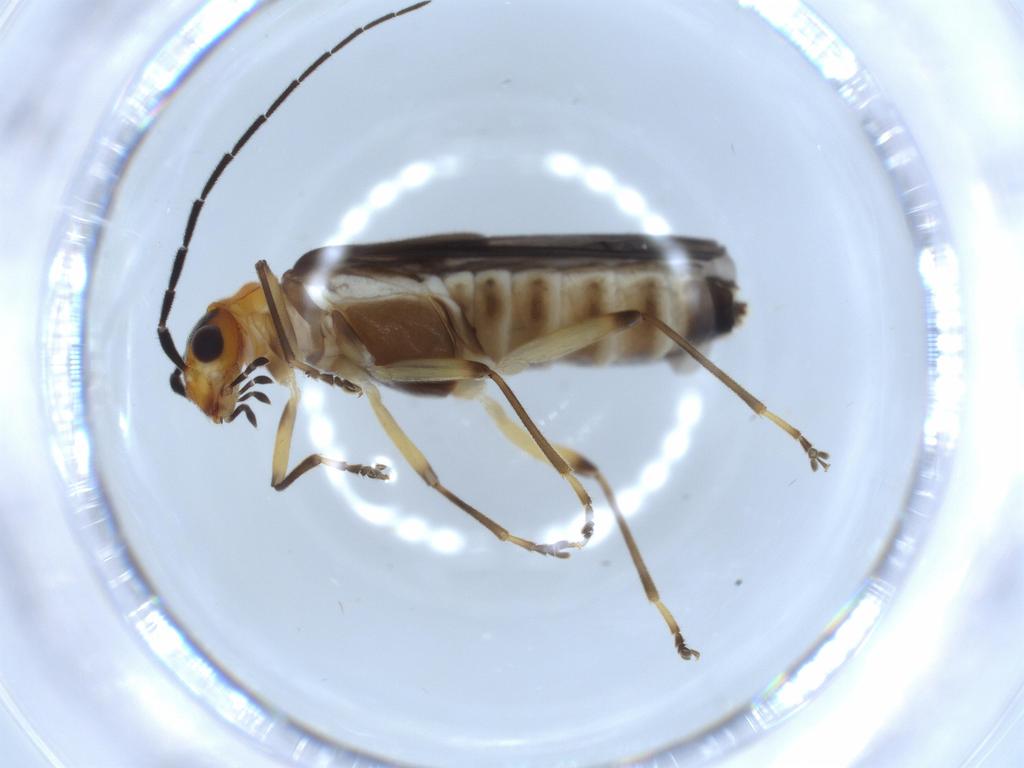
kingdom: Animalia
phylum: Arthropoda
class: Insecta
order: Coleoptera
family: Cantharidae
